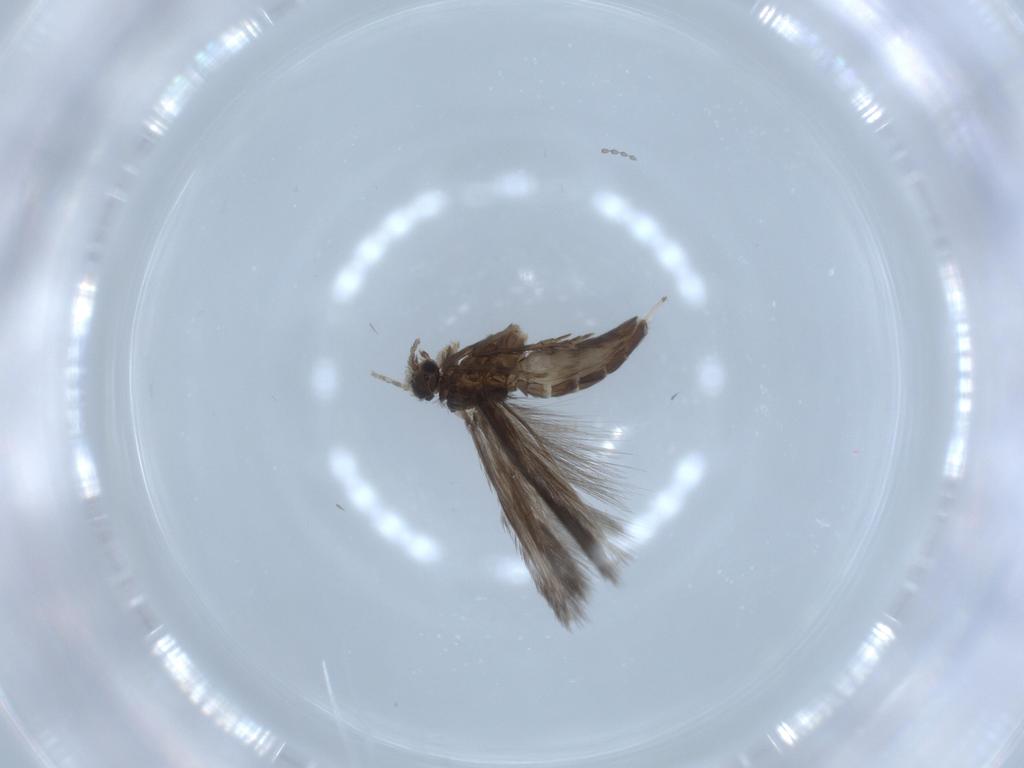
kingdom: Animalia
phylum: Arthropoda
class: Insecta
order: Trichoptera
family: Hydroptilidae
